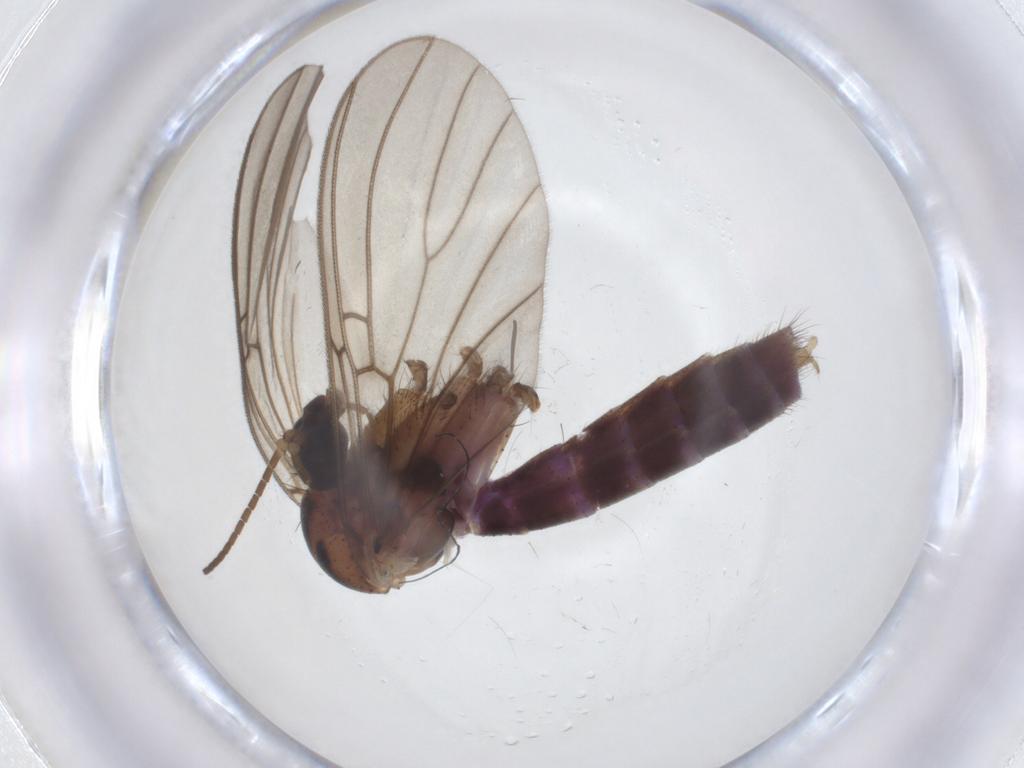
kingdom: Animalia
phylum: Arthropoda
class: Insecta
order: Diptera
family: Mycetophilidae
